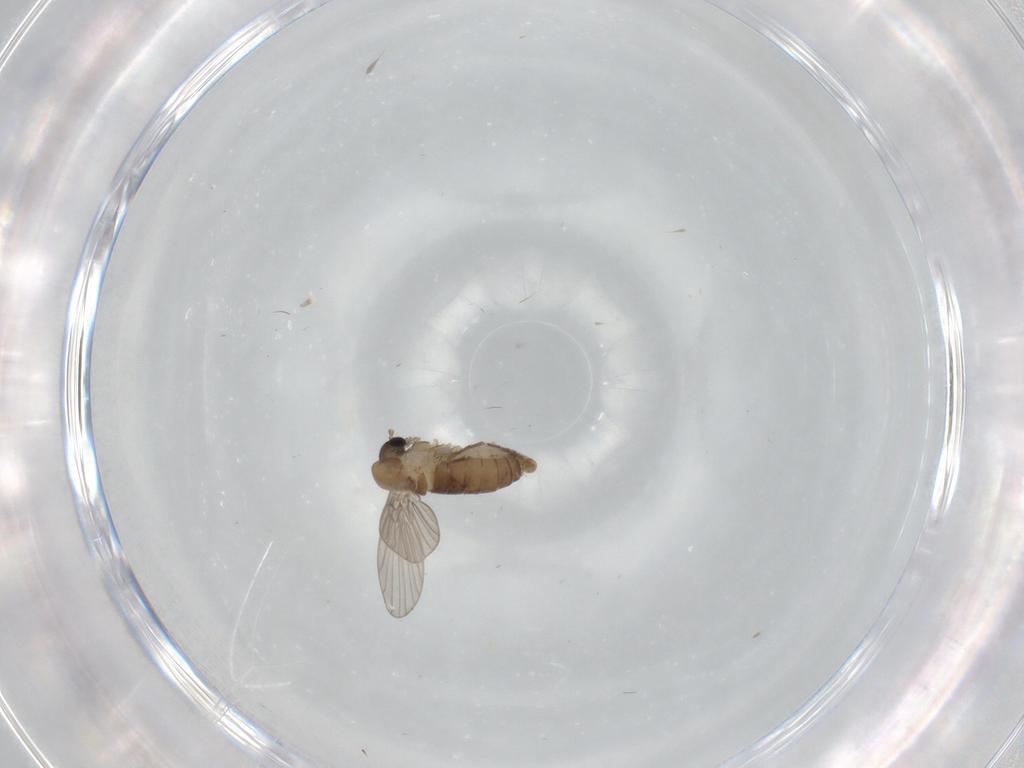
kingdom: Animalia
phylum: Arthropoda
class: Insecta
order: Diptera
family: Psychodidae
